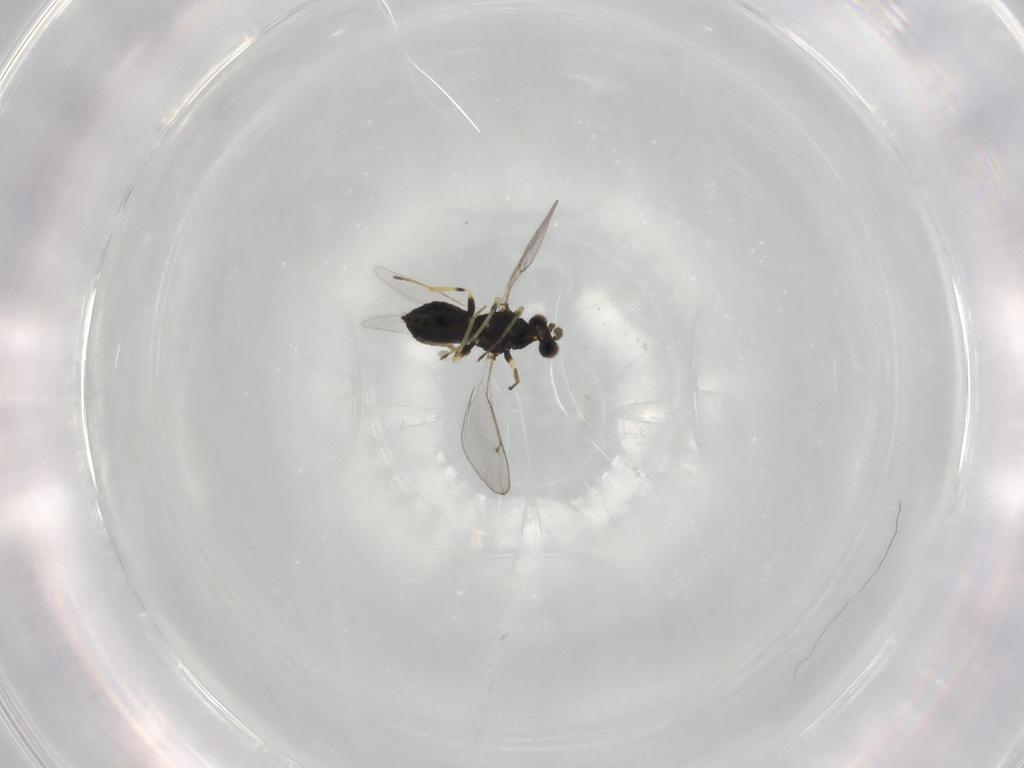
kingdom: Animalia
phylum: Arthropoda
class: Insecta
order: Hymenoptera
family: Eulophidae
